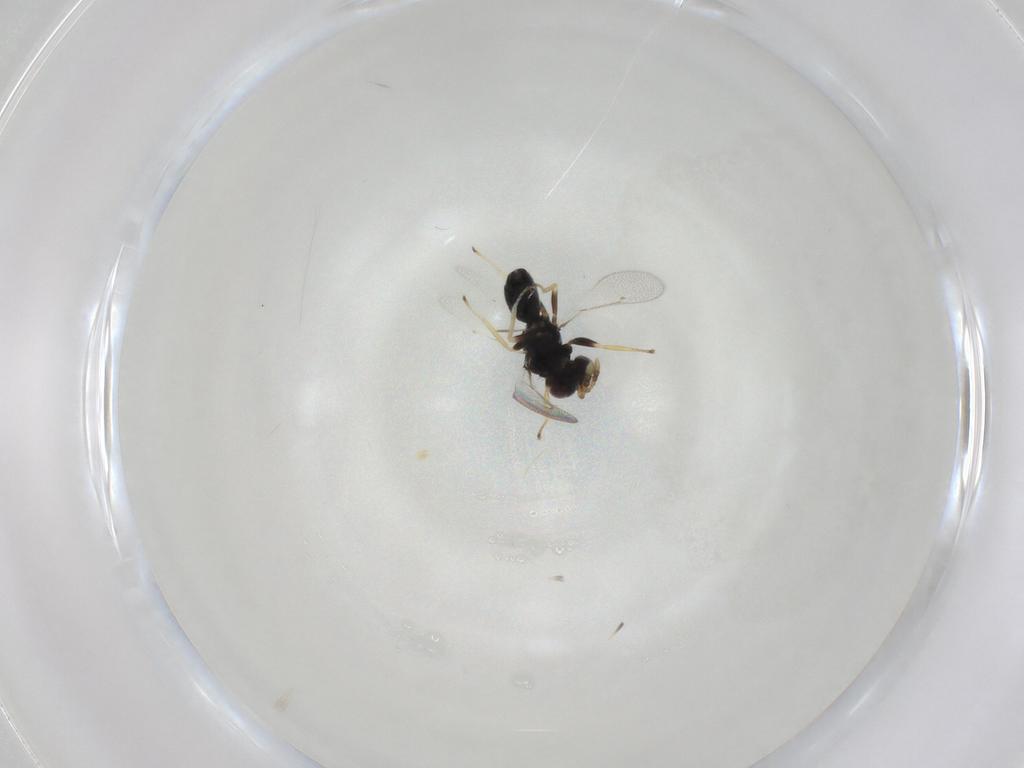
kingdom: Animalia
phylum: Arthropoda
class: Insecta
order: Hymenoptera
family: Eulophidae
